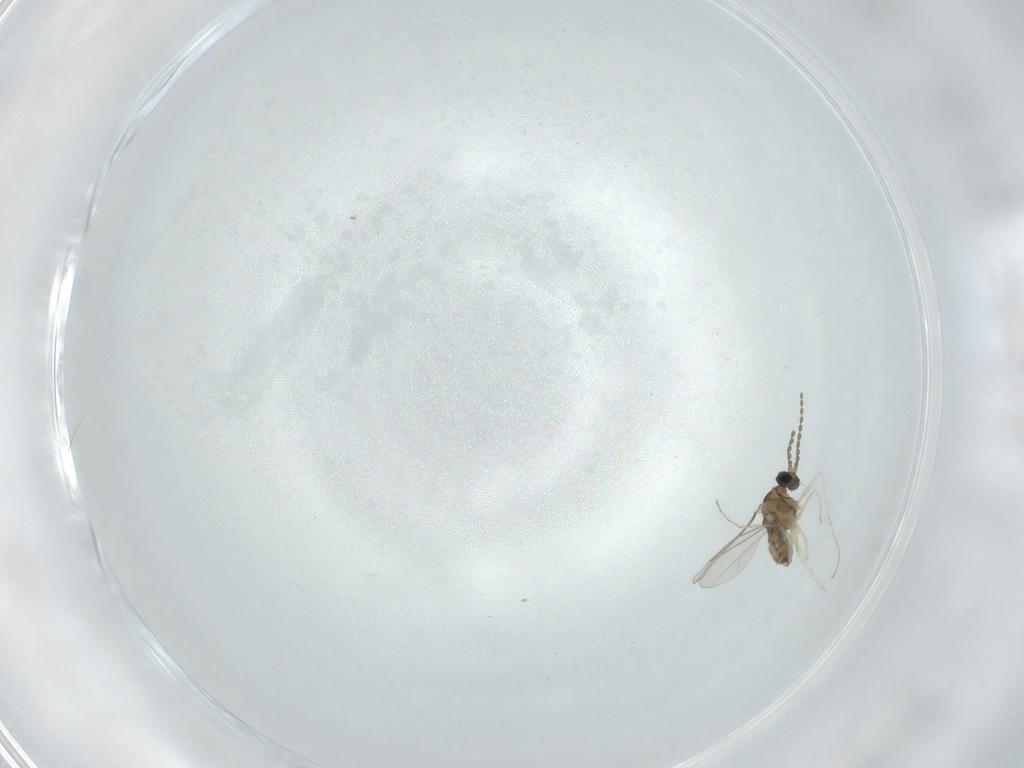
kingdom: Animalia
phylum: Arthropoda
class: Insecta
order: Diptera
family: Cecidomyiidae
